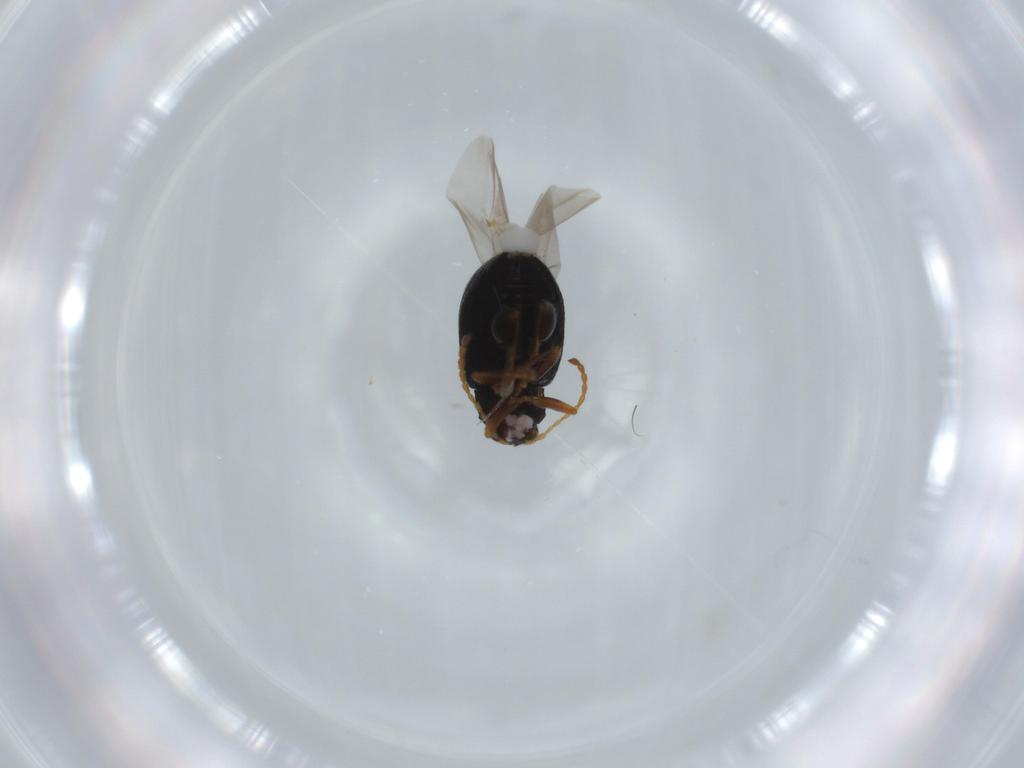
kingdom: Animalia
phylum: Arthropoda
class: Insecta
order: Coleoptera
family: Chrysomelidae
